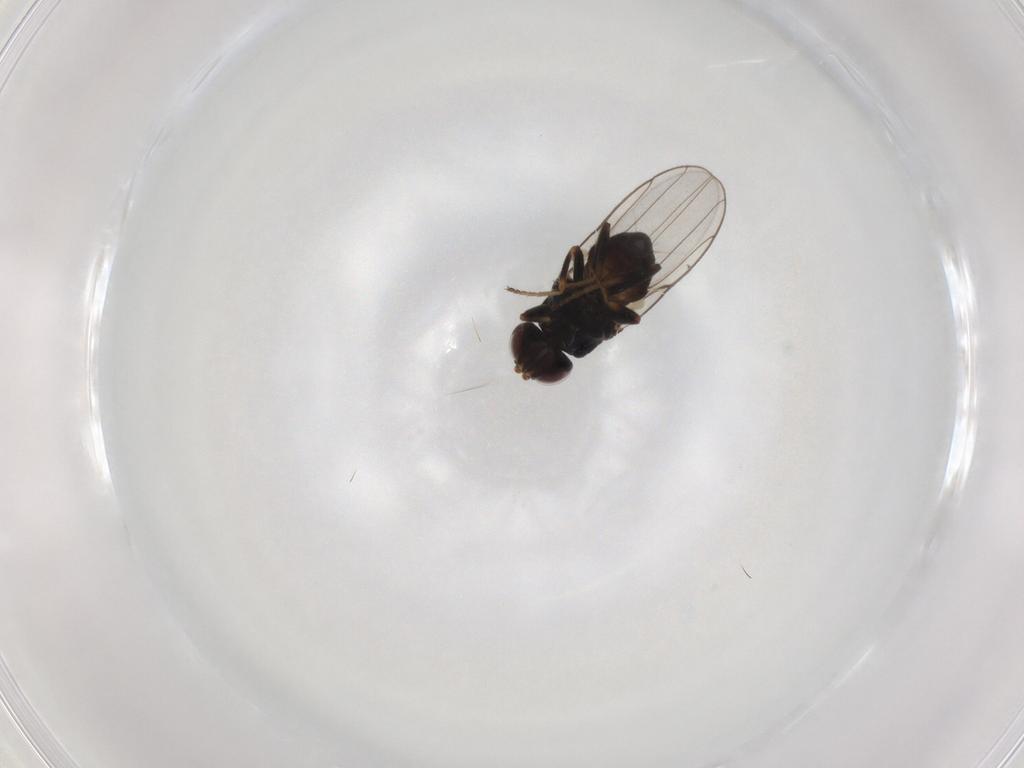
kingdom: Animalia
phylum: Arthropoda
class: Insecta
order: Diptera
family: Chloropidae
